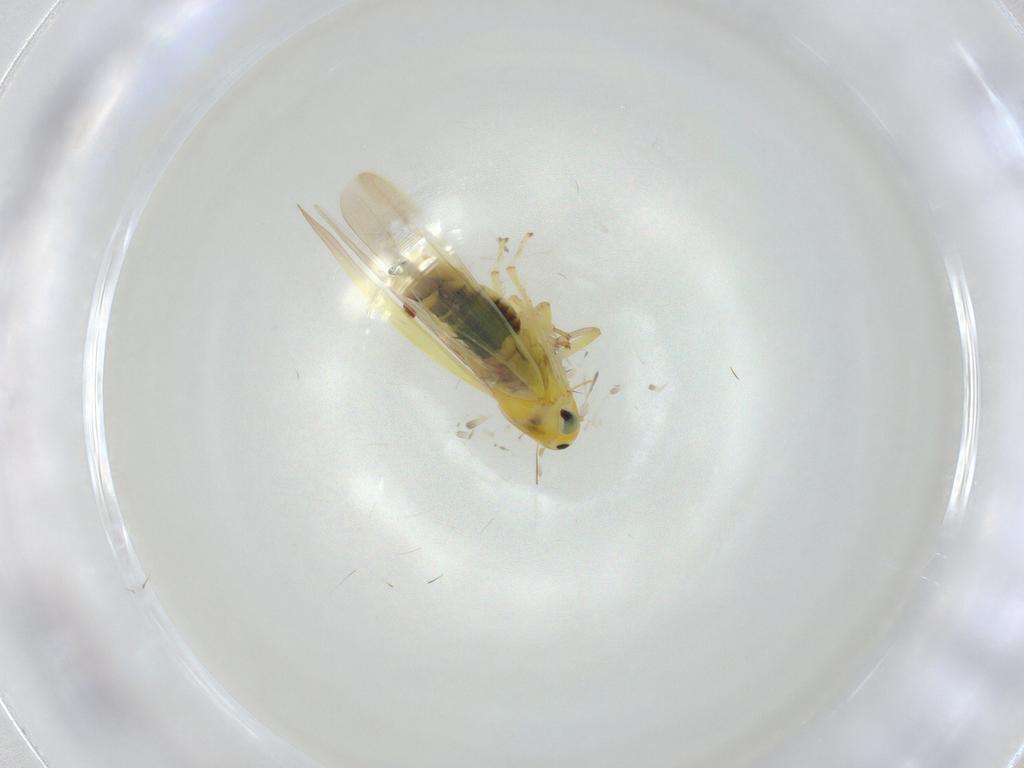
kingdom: Animalia
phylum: Arthropoda
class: Insecta
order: Hemiptera
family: Cicadellidae
